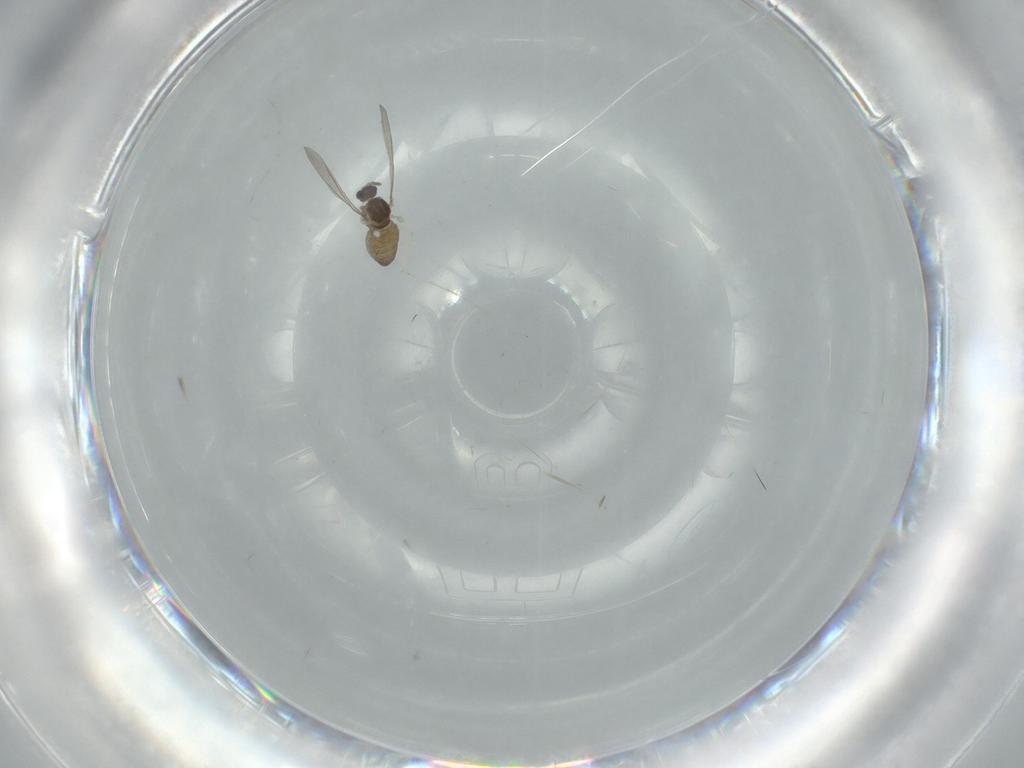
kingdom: Animalia
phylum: Arthropoda
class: Insecta
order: Diptera
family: Cecidomyiidae
